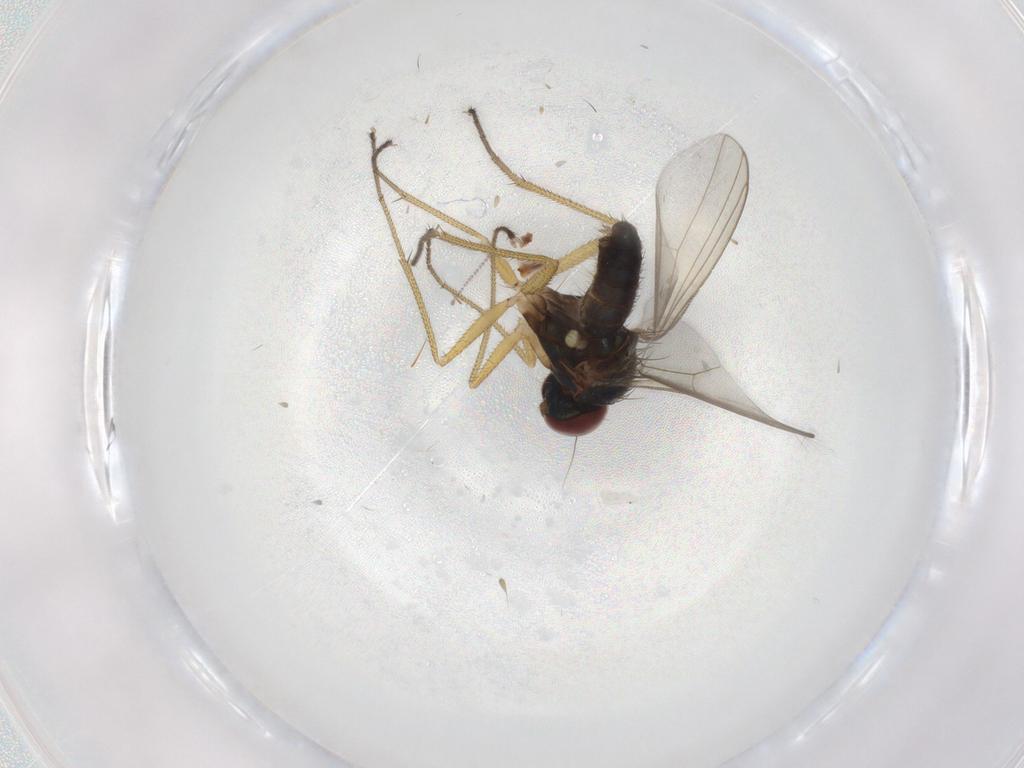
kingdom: Animalia
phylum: Arthropoda
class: Insecta
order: Diptera
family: Dolichopodidae
